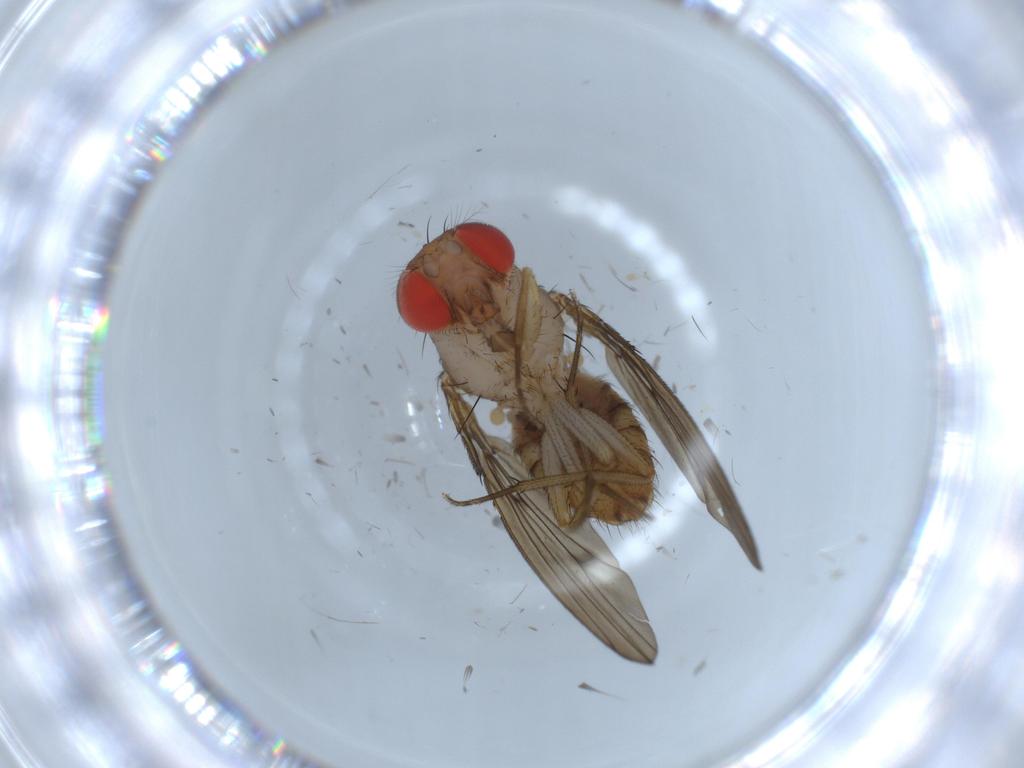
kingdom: Animalia
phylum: Arthropoda
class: Insecta
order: Diptera
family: Drosophilidae
